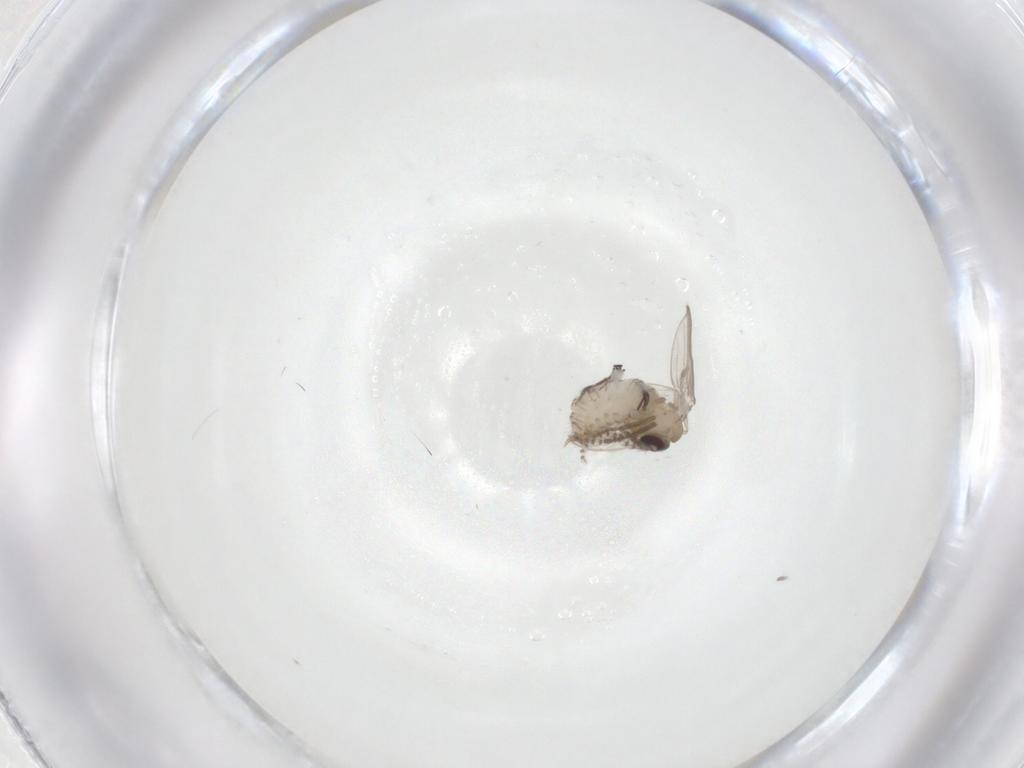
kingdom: Animalia
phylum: Arthropoda
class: Insecta
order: Diptera
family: Psychodidae
